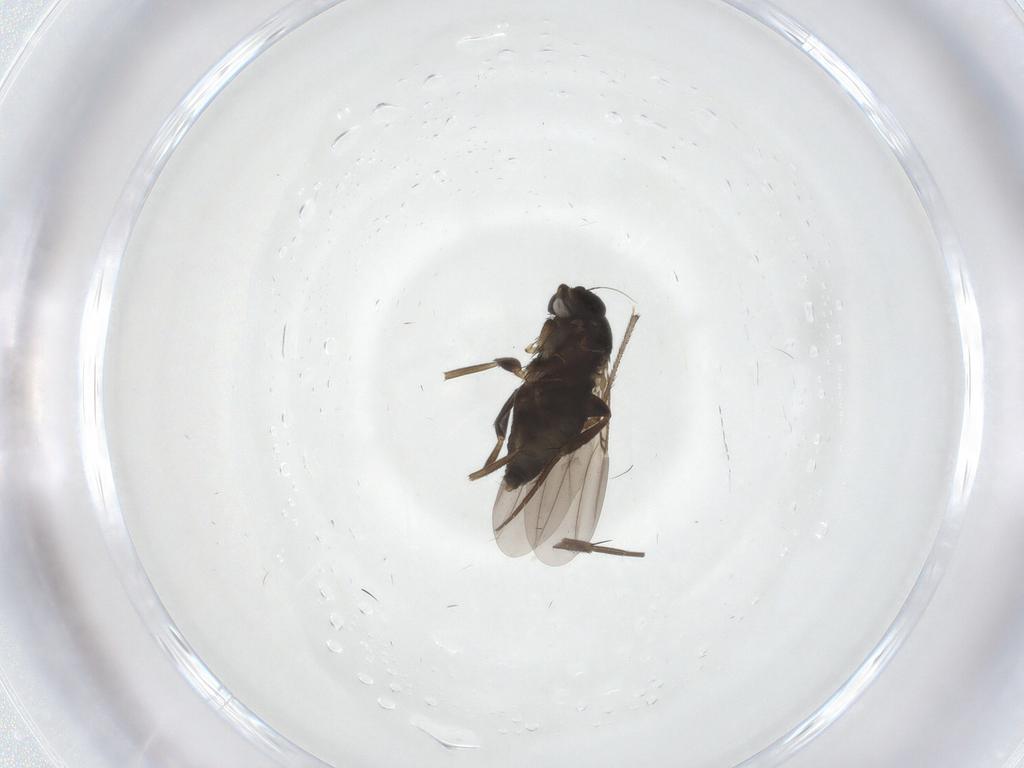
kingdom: Animalia
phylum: Arthropoda
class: Insecta
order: Diptera
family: Phoridae
